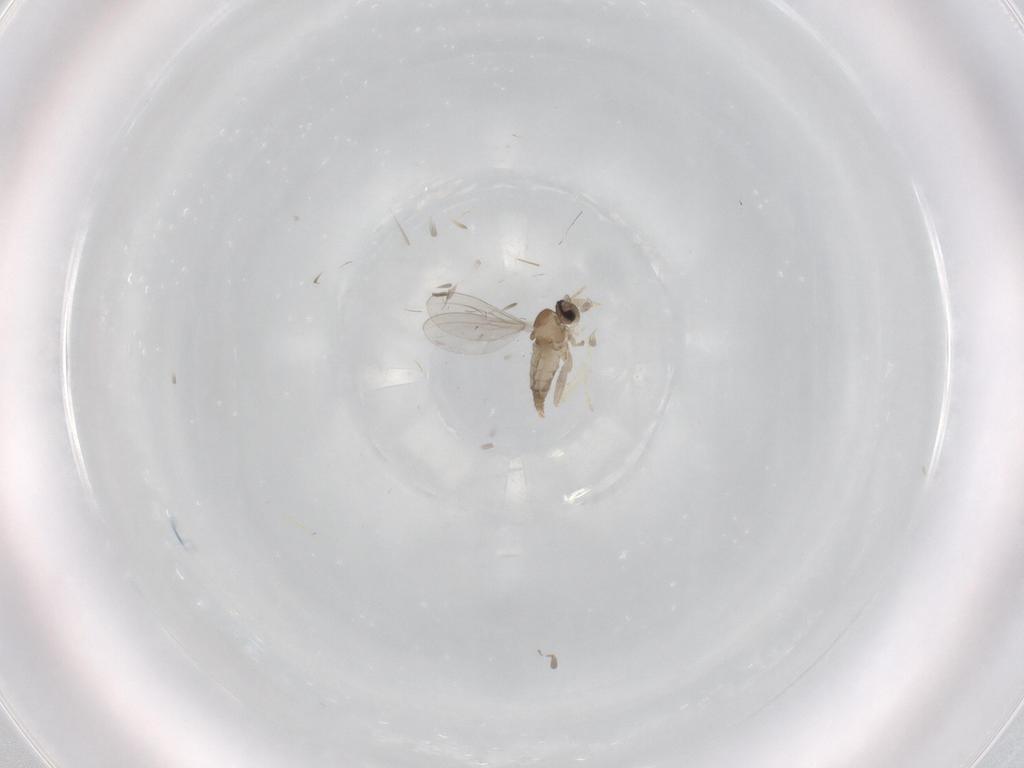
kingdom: Animalia
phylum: Arthropoda
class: Insecta
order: Diptera
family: Cecidomyiidae
